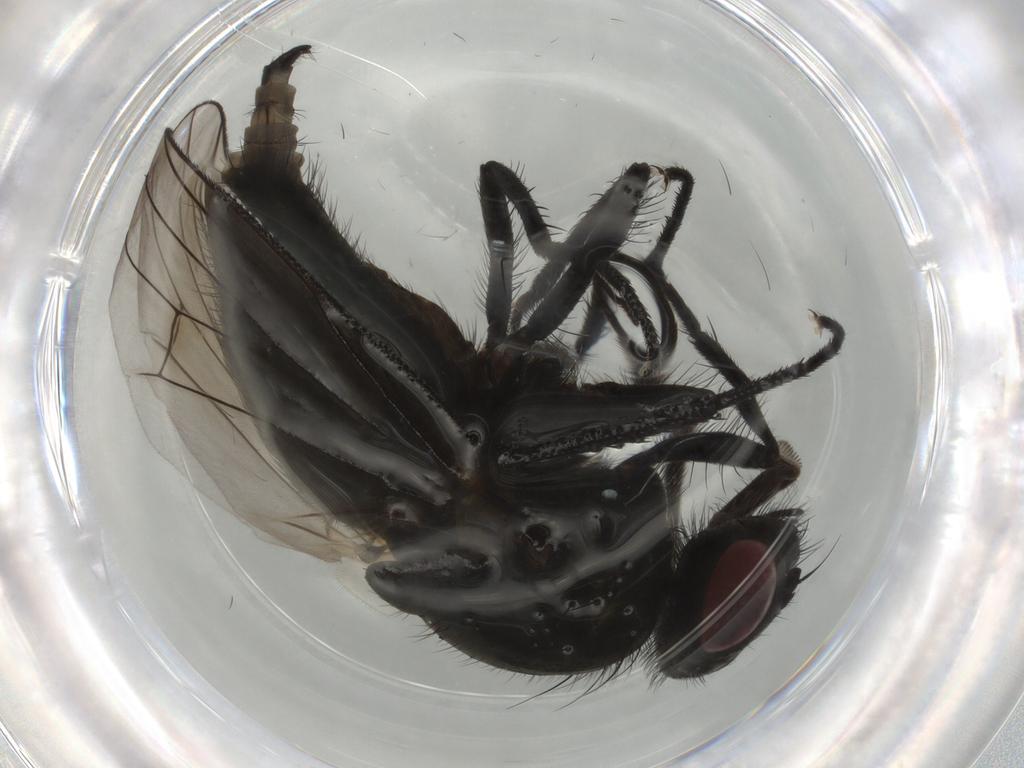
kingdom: Animalia
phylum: Arthropoda
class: Insecta
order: Diptera
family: Muscidae
